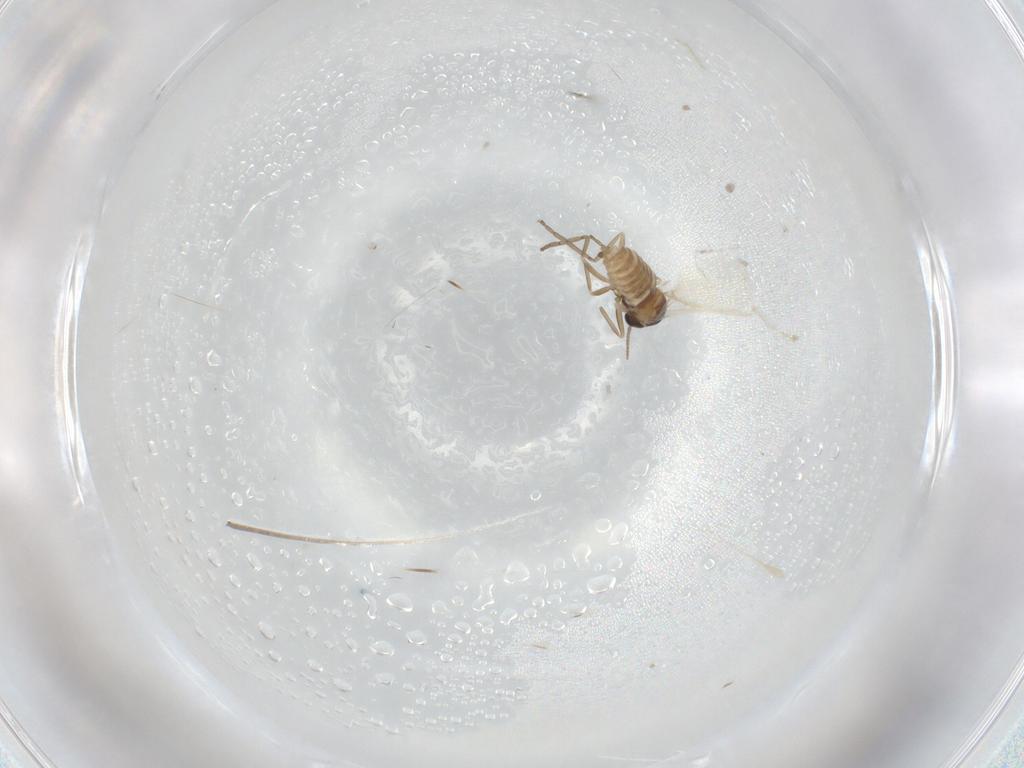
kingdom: Animalia
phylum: Arthropoda
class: Insecta
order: Diptera
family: Cecidomyiidae
